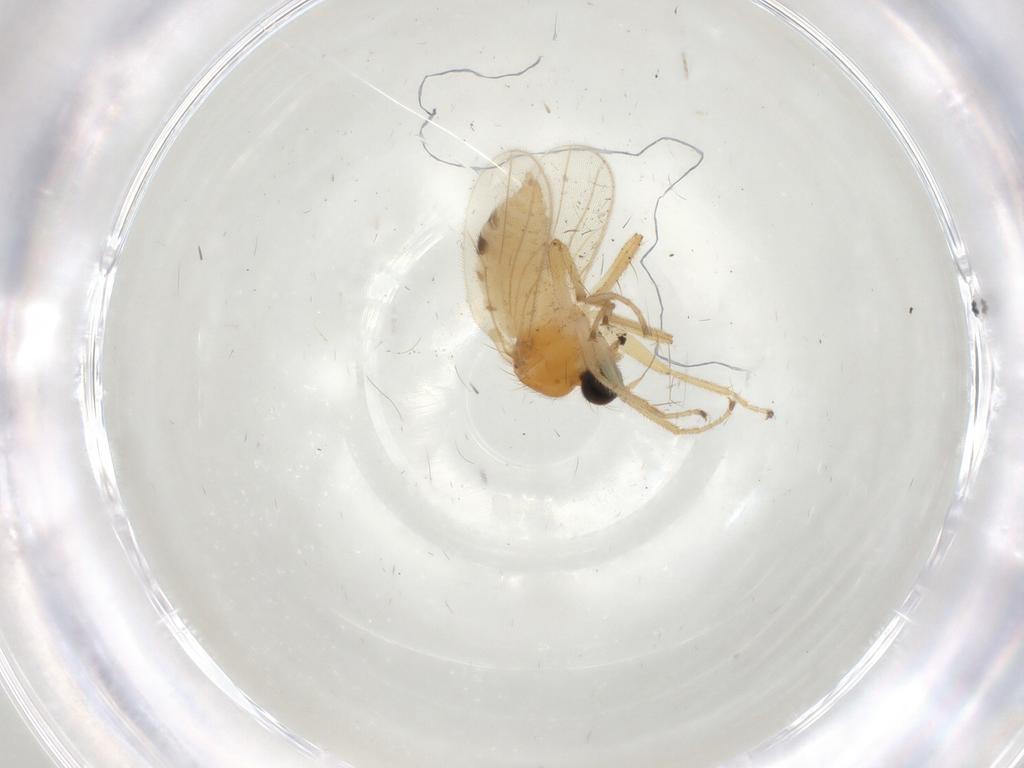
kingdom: Animalia
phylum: Arthropoda
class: Insecta
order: Diptera
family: Hybotidae
